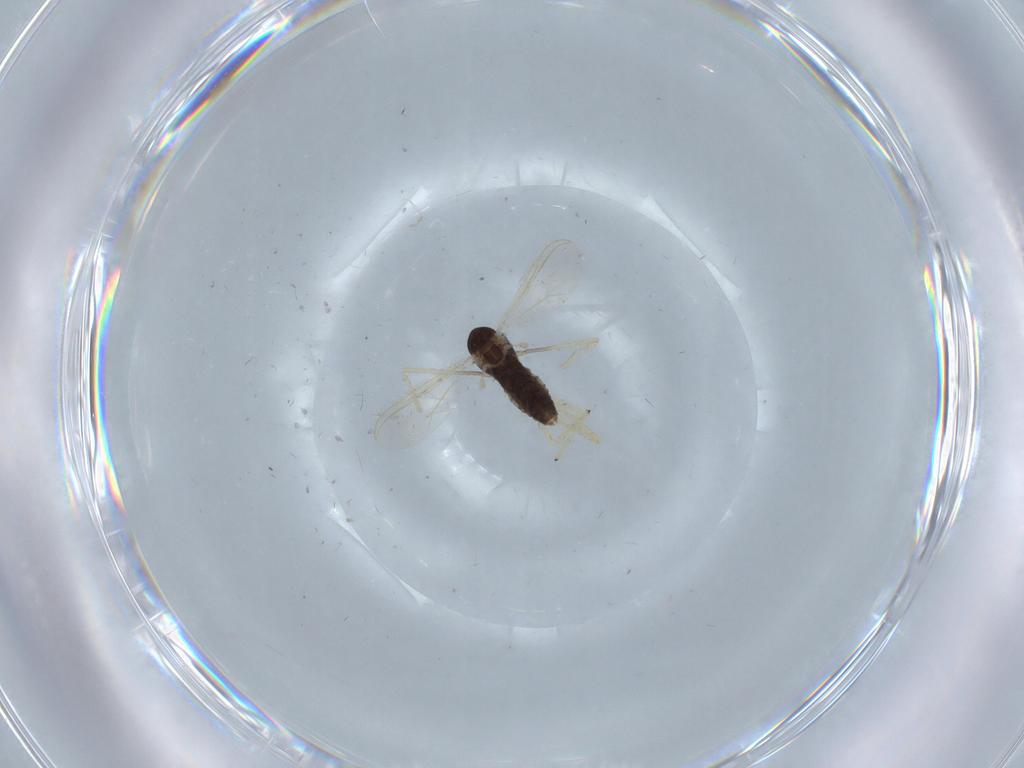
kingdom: Animalia
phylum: Arthropoda
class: Insecta
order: Diptera
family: Chironomidae
